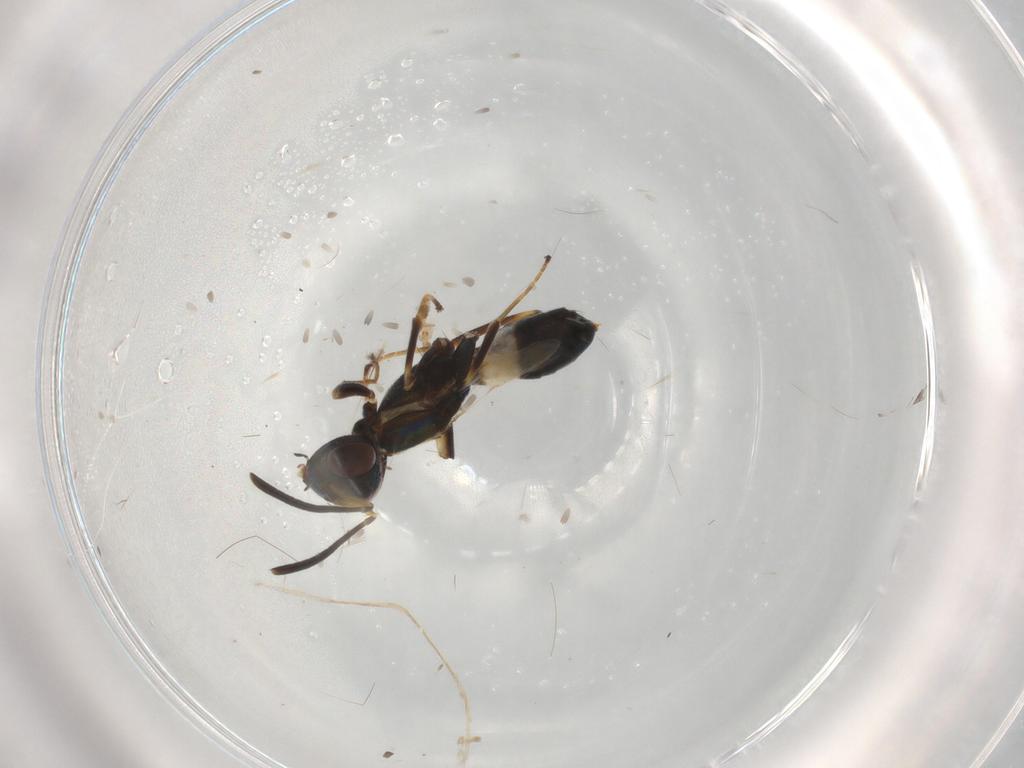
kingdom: Animalia
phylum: Arthropoda
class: Insecta
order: Hymenoptera
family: Eupelmidae
